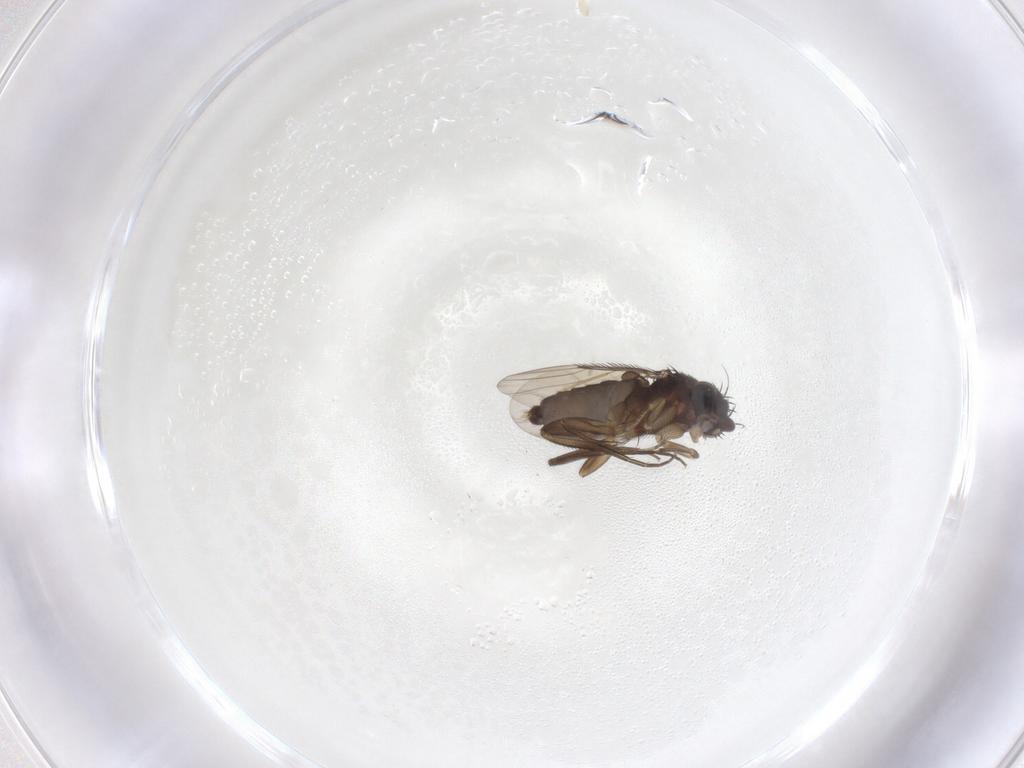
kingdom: Animalia
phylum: Arthropoda
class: Insecta
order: Diptera
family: Phoridae
